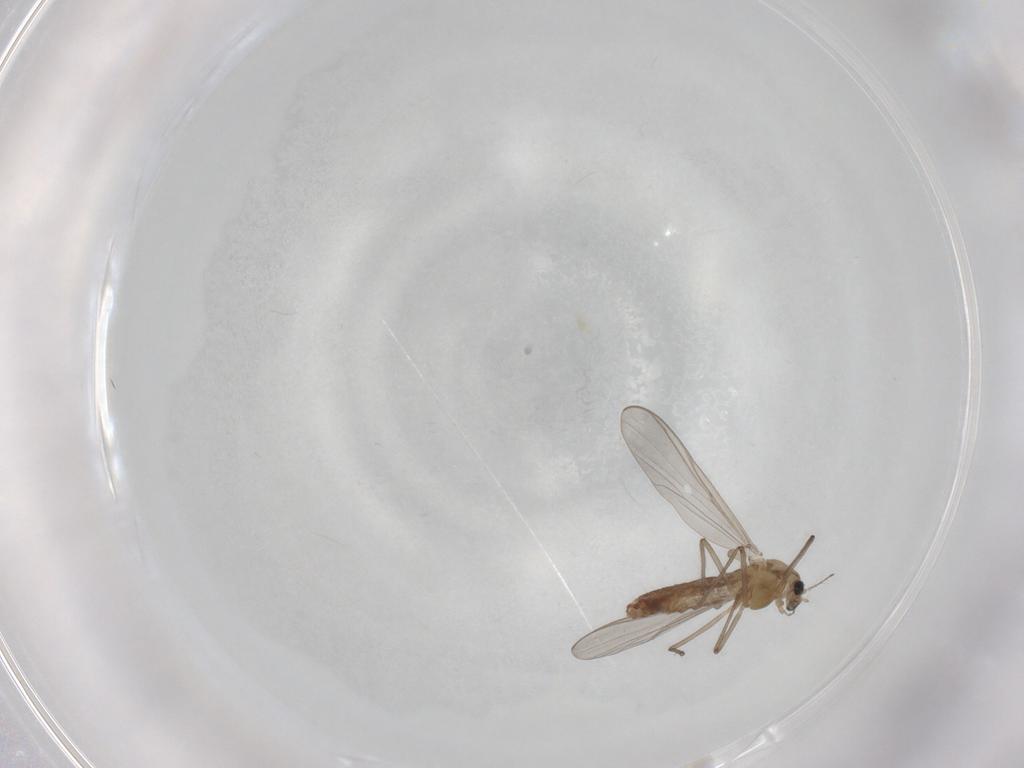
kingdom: Animalia
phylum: Arthropoda
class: Insecta
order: Diptera
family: Chironomidae
